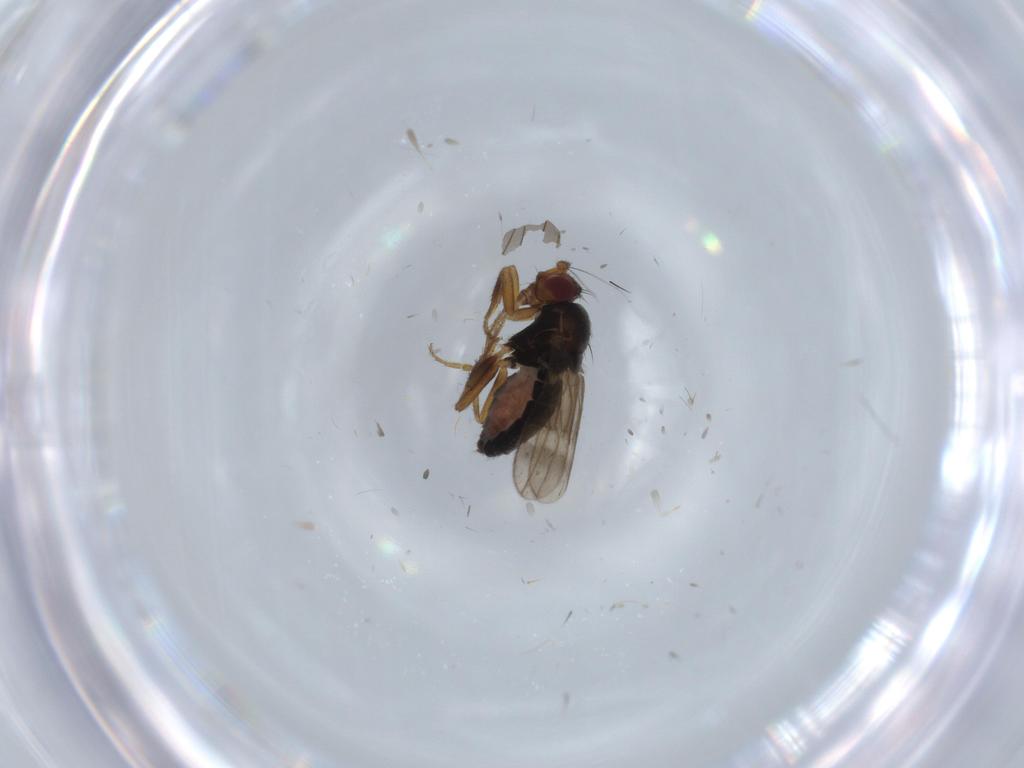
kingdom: Animalia
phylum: Arthropoda
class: Insecta
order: Diptera
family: Sphaeroceridae
